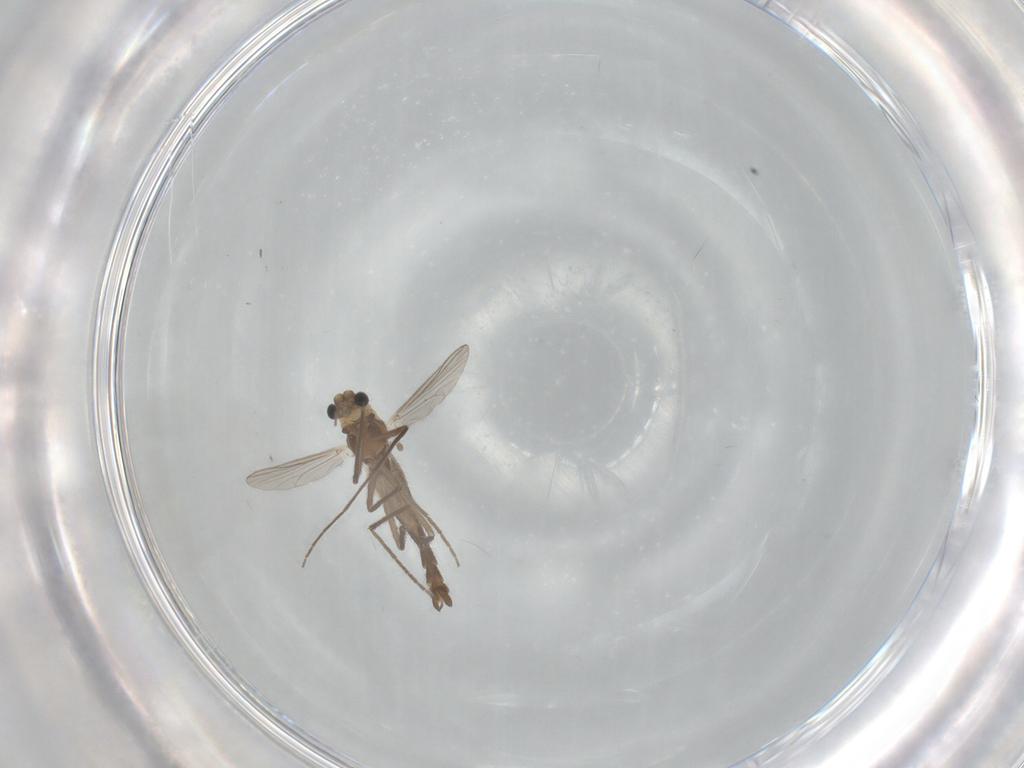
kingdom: Animalia
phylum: Arthropoda
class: Insecta
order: Diptera
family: Chironomidae
